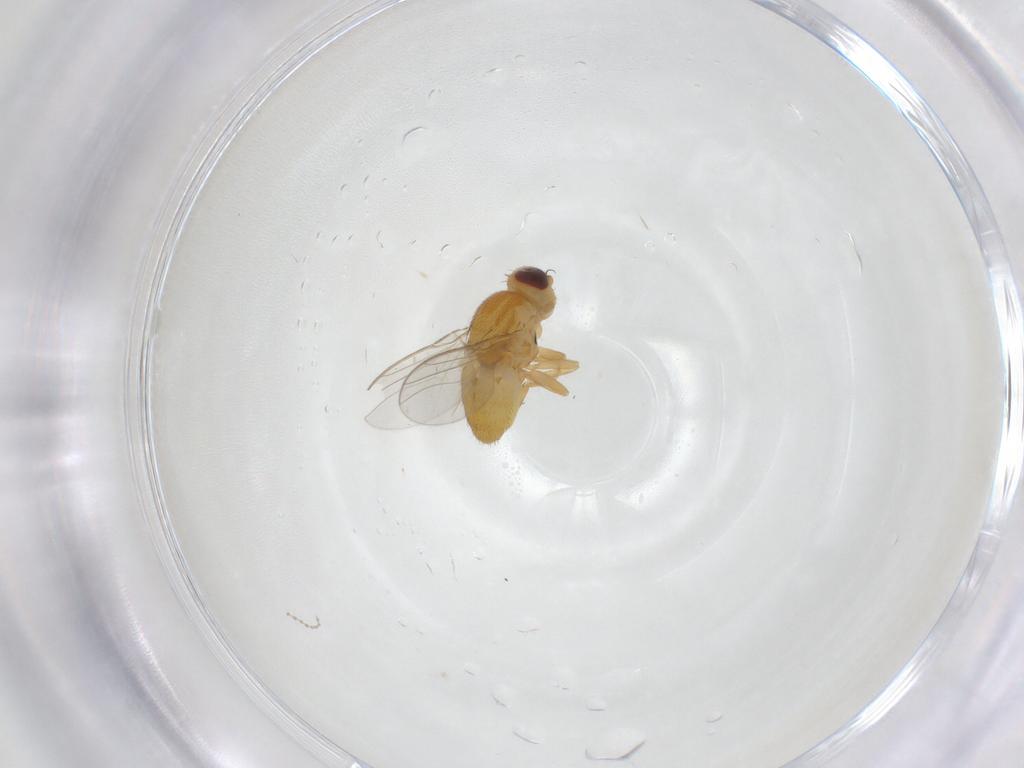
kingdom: Animalia
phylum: Arthropoda
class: Insecta
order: Diptera
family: Chloropidae
